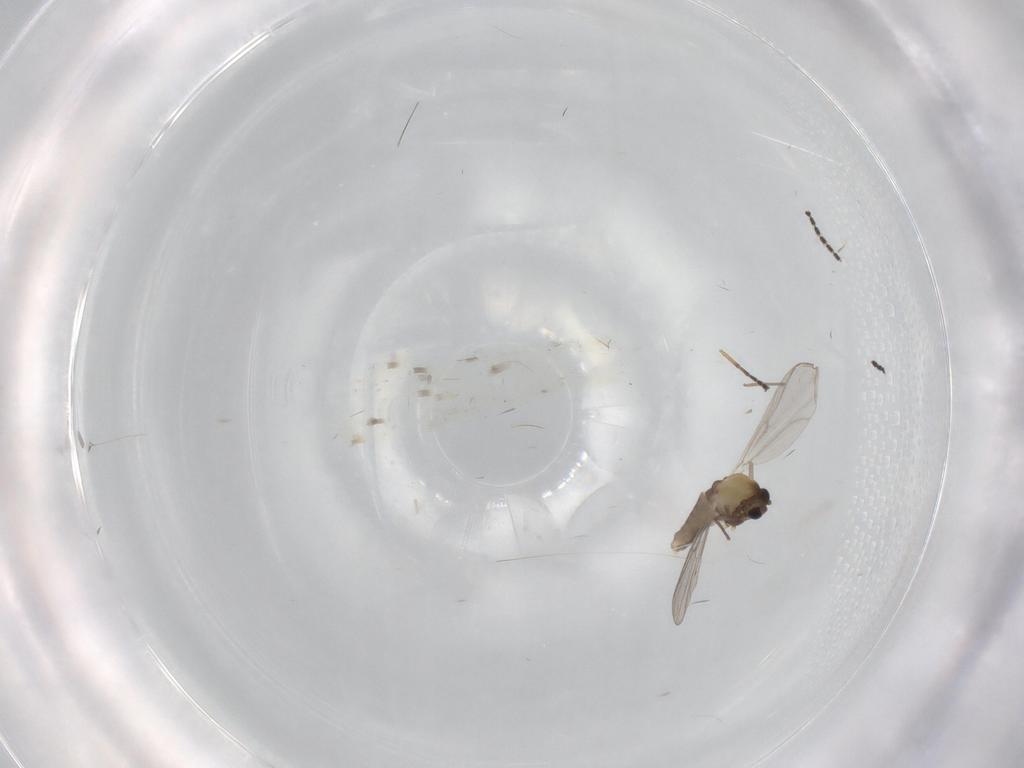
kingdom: Animalia
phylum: Arthropoda
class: Insecta
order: Diptera
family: Chironomidae
